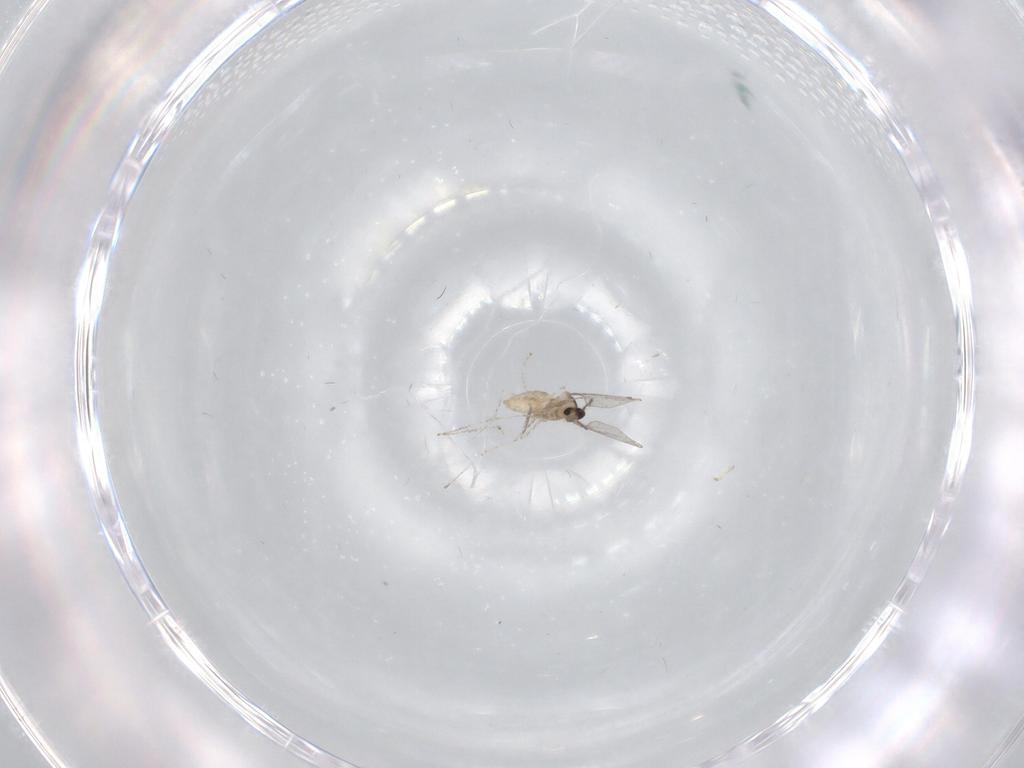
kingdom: Animalia
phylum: Arthropoda
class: Insecta
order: Diptera
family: Cecidomyiidae
